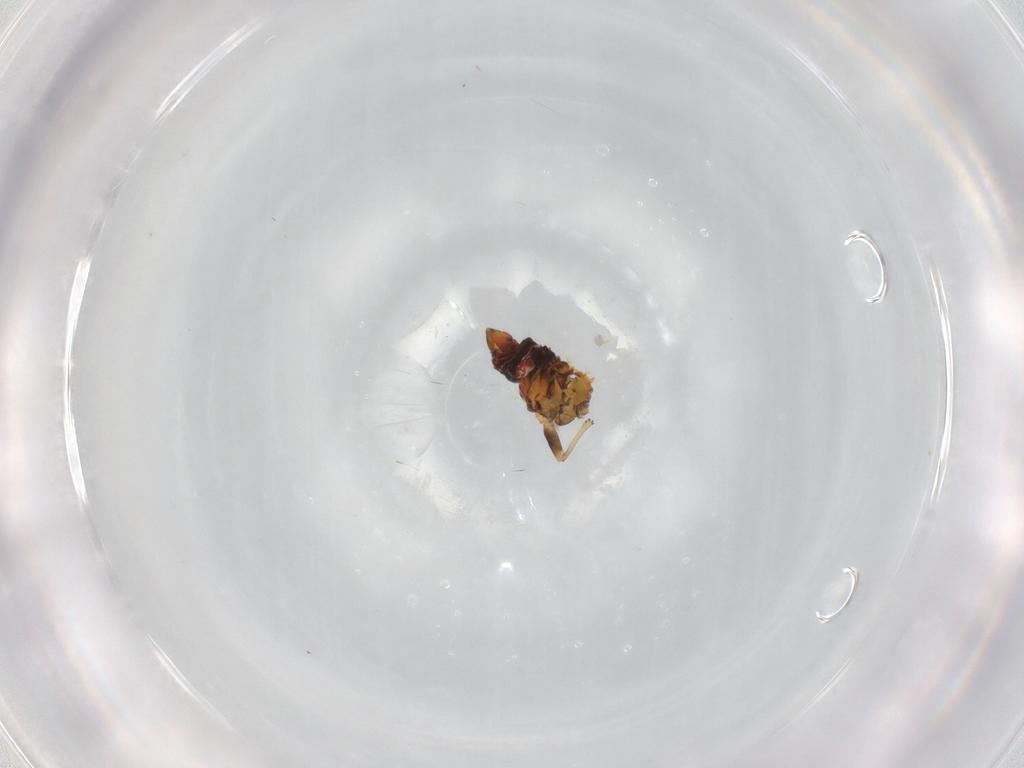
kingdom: Animalia
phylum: Arthropoda
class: Insecta
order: Hemiptera
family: Psyllidae
